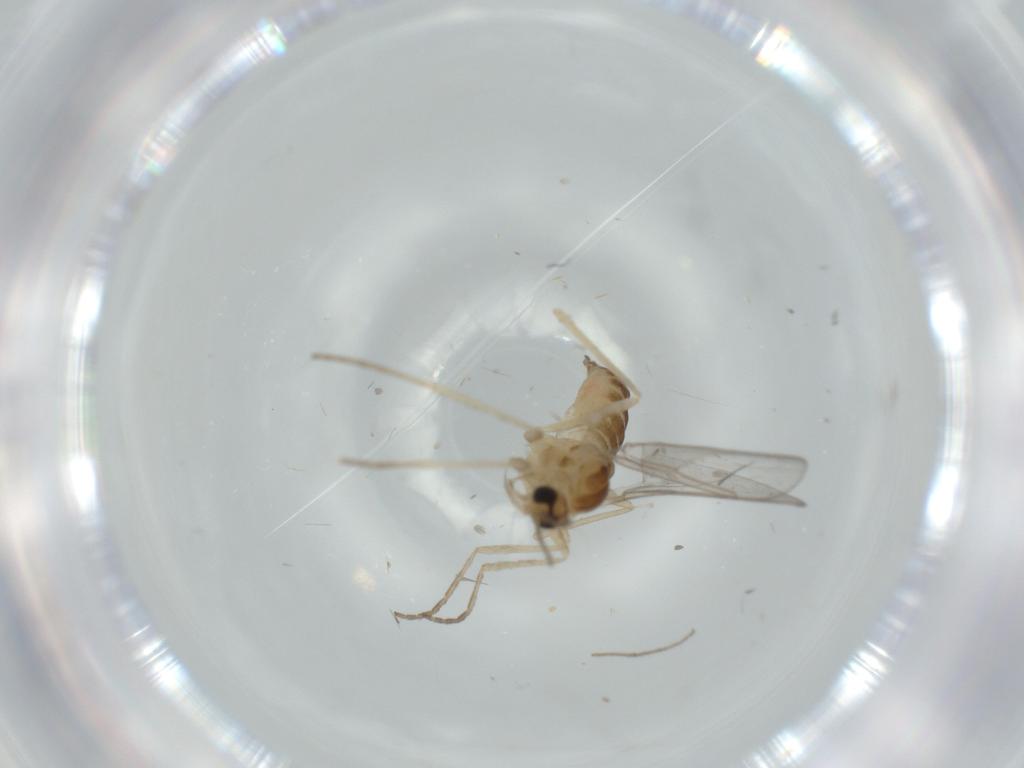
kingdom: Animalia
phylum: Arthropoda
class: Insecta
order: Diptera
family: Chironomidae
